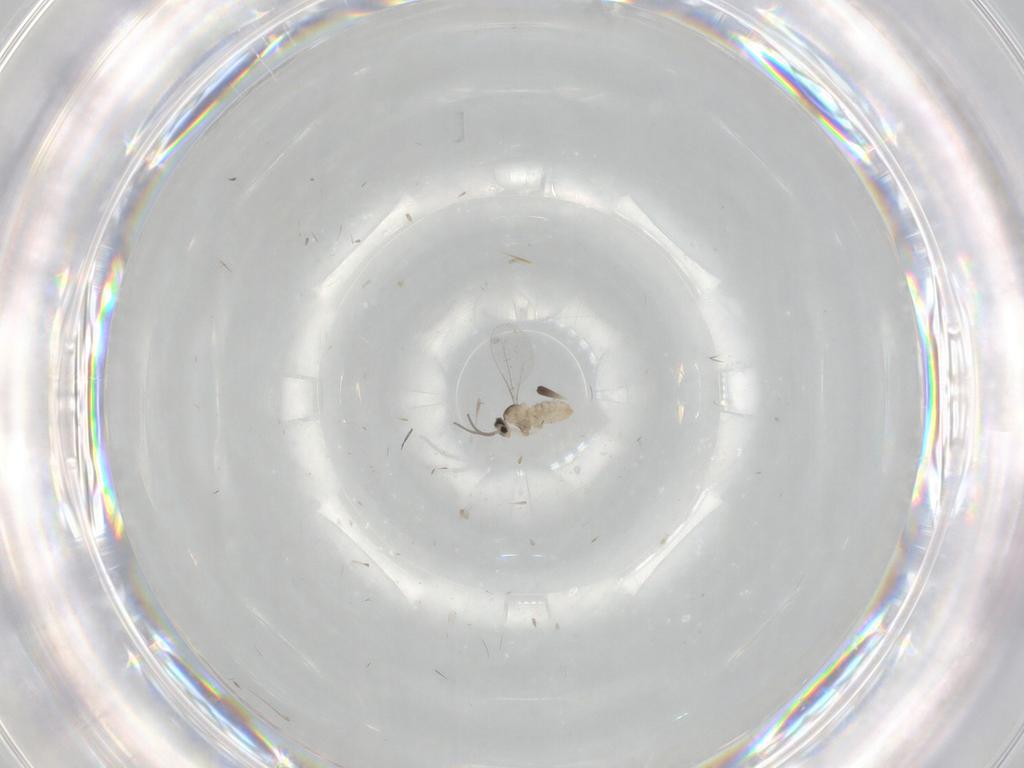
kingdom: Animalia
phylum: Arthropoda
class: Insecta
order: Diptera
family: Cecidomyiidae
